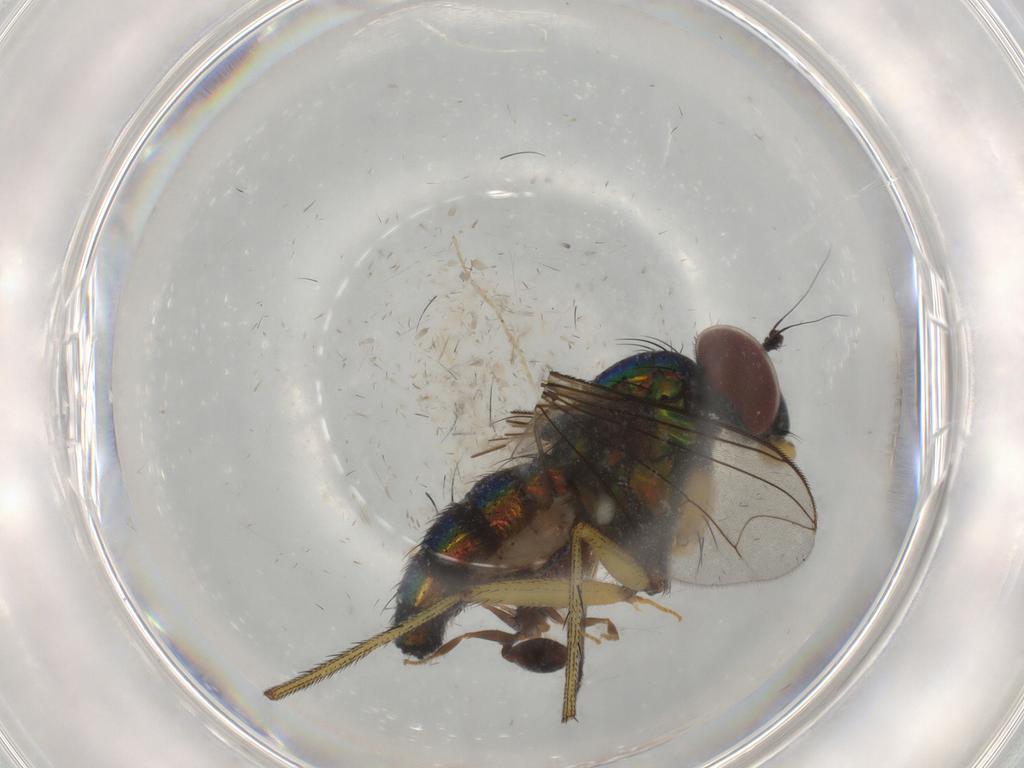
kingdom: Animalia
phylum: Arthropoda
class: Insecta
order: Diptera
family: Dolichopodidae
